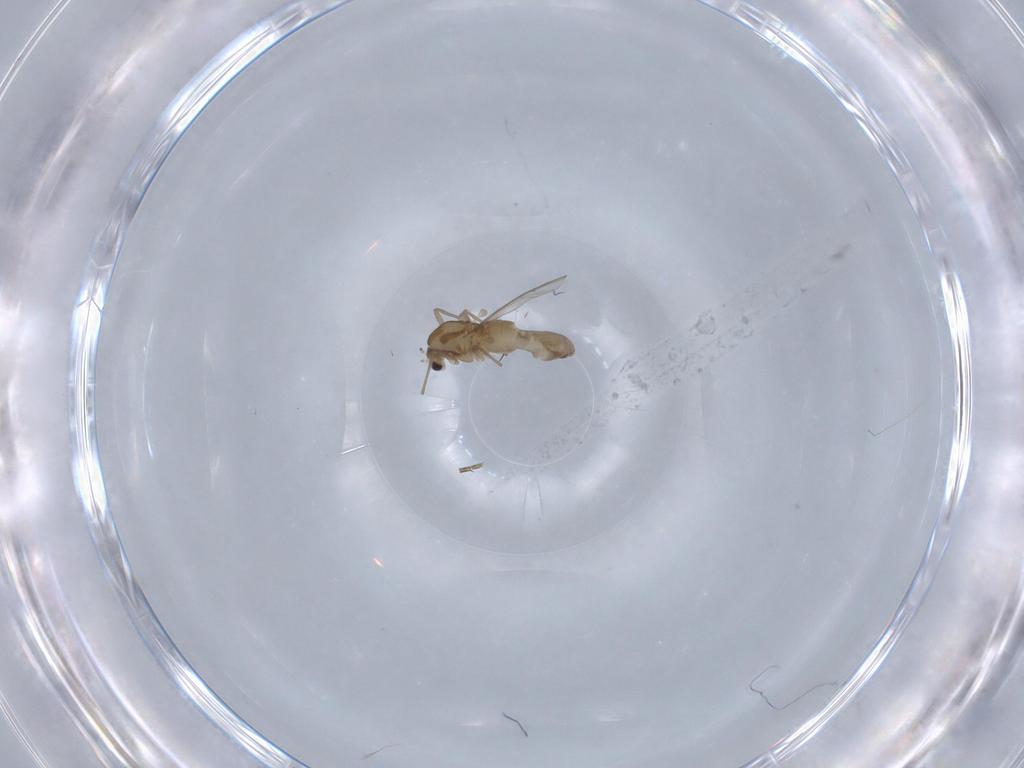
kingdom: Animalia
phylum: Arthropoda
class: Insecta
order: Diptera
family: Chironomidae
